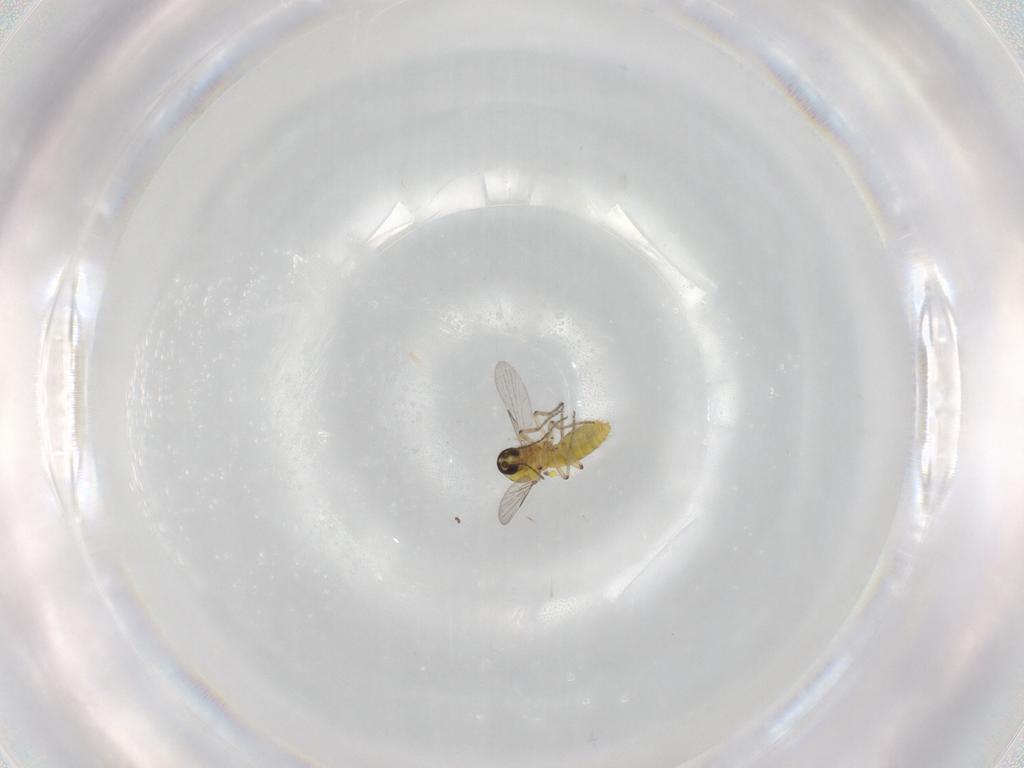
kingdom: Animalia
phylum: Arthropoda
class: Insecta
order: Diptera
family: Ceratopogonidae
